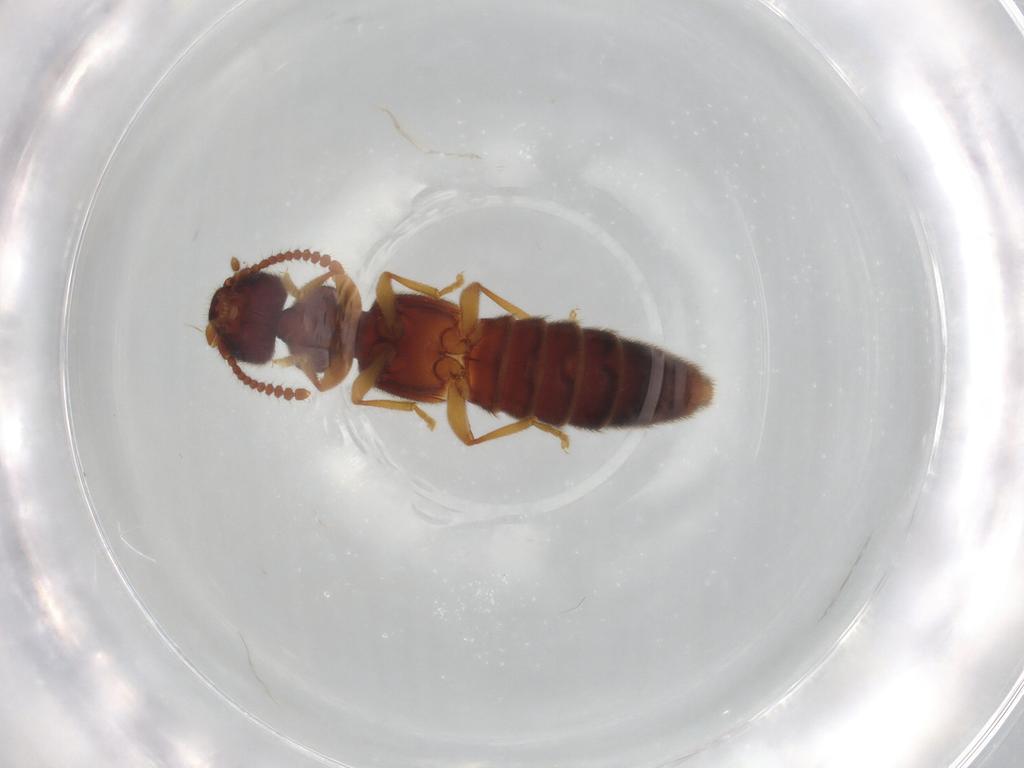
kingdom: Animalia
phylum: Arthropoda
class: Insecta
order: Coleoptera
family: Staphylinidae
